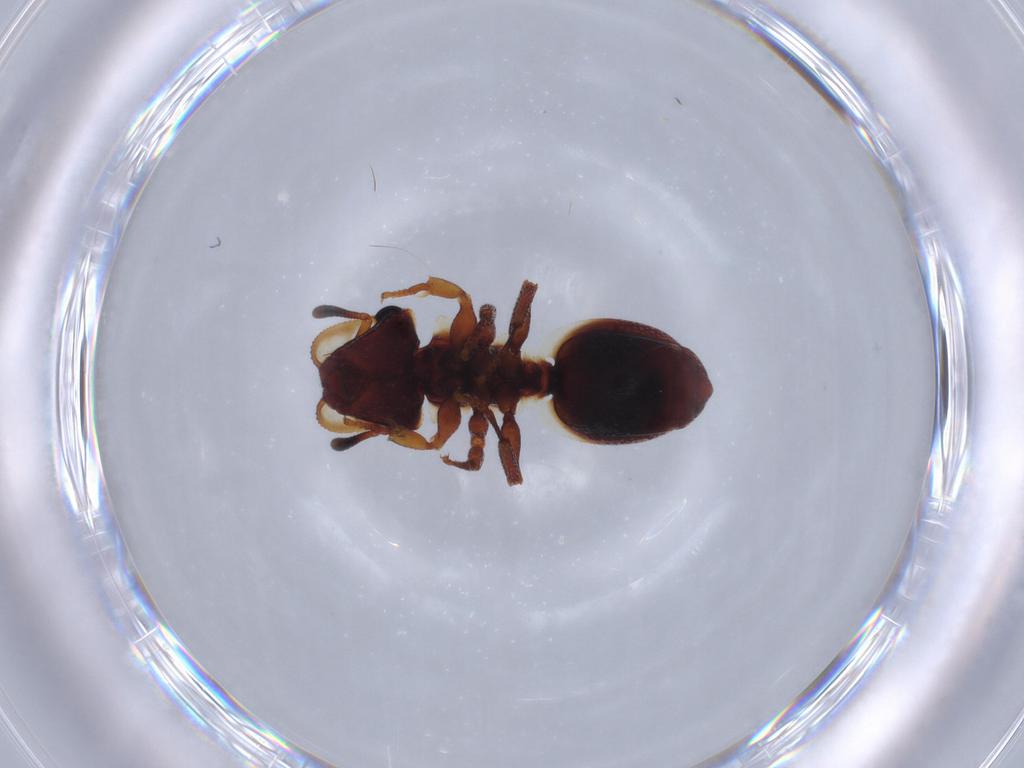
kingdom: Animalia
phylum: Arthropoda
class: Insecta
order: Hymenoptera
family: Formicidae
